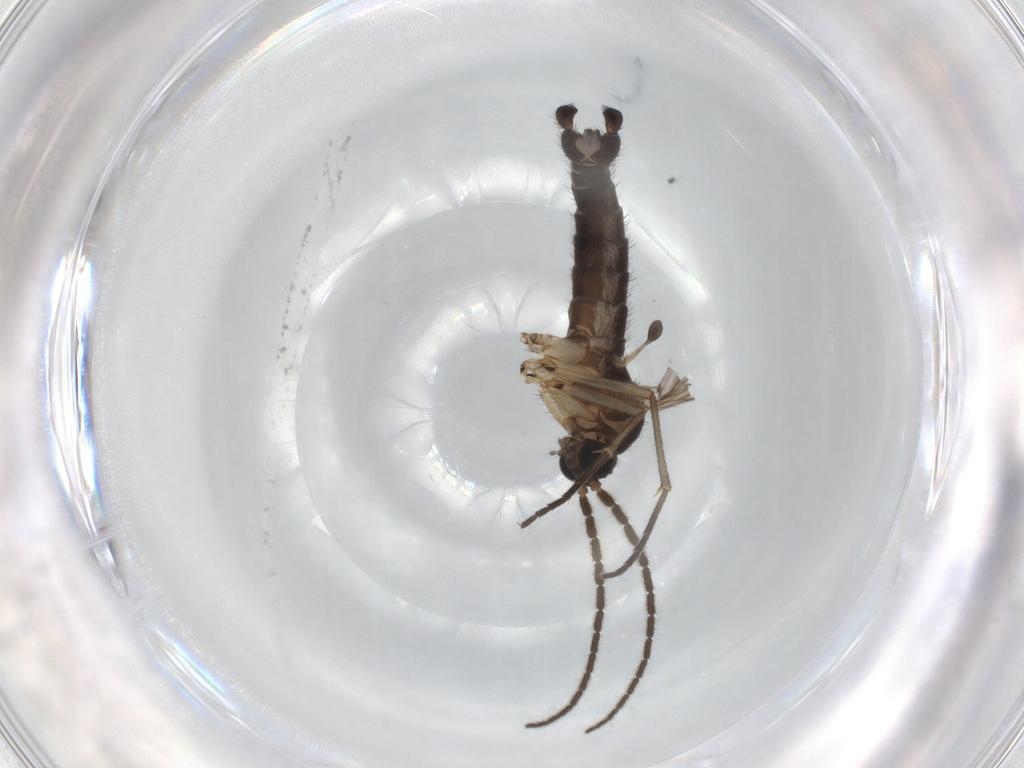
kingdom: Animalia
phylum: Arthropoda
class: Insecta
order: Diptera
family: Sciaridae
